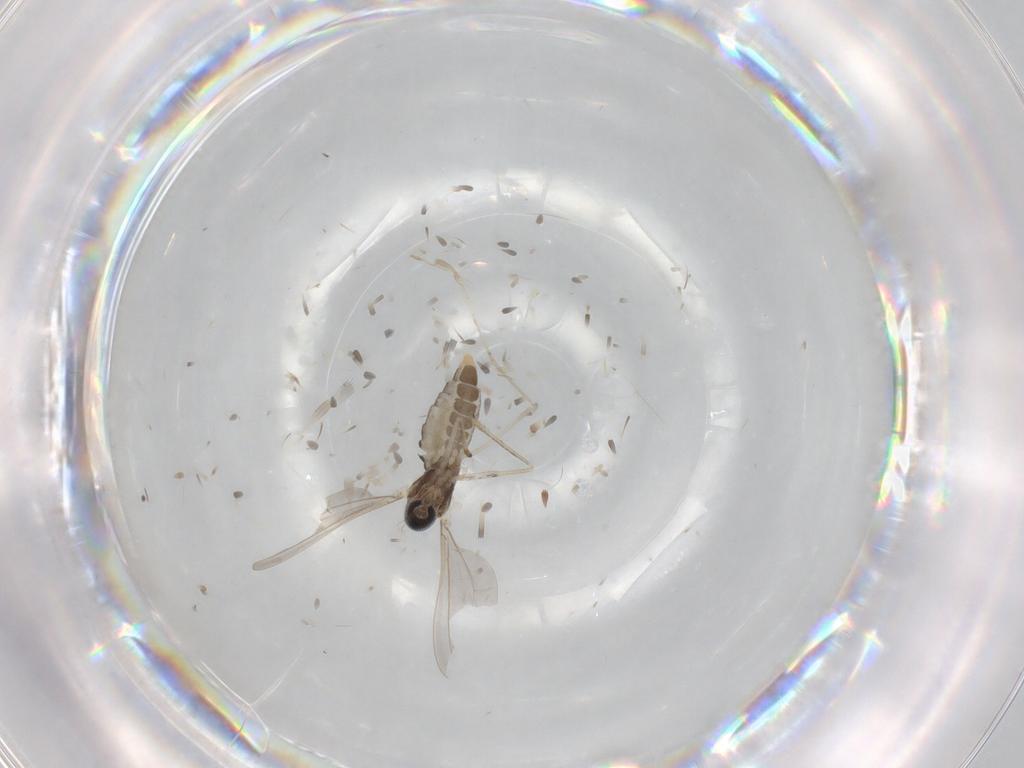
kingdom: Animalia
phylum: Arthropoda
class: Insecta
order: Diptera
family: Cecidomyiidae
